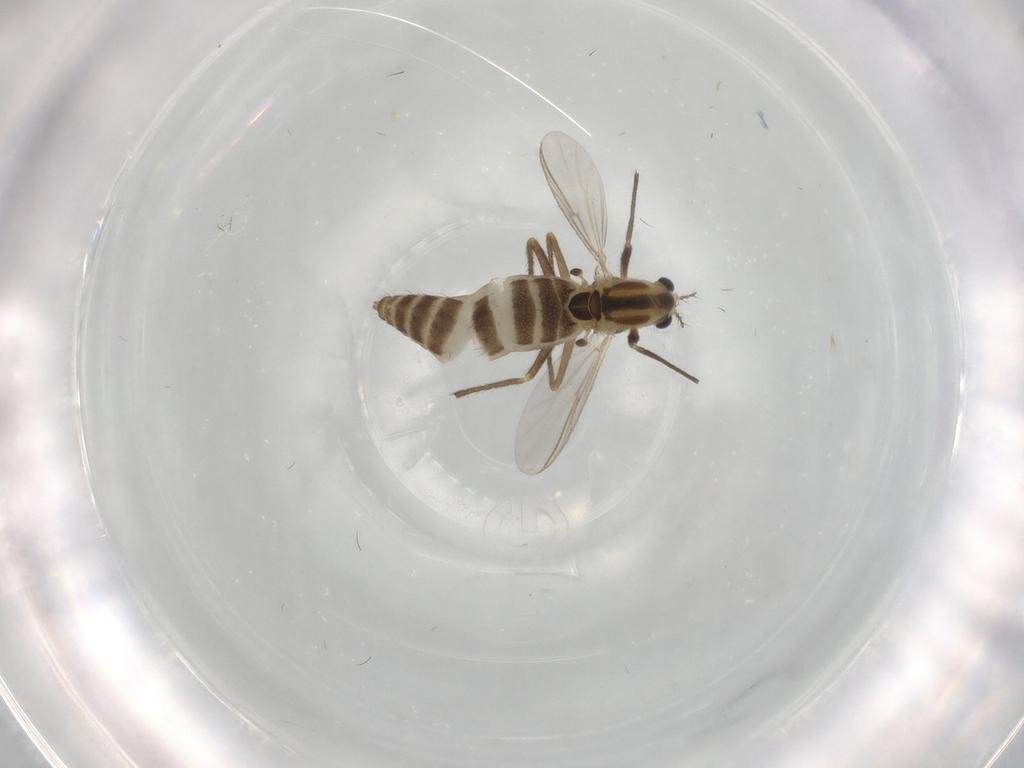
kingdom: Animalia
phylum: Arthropoda
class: Insecta
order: Diptera
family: Chironomidae
